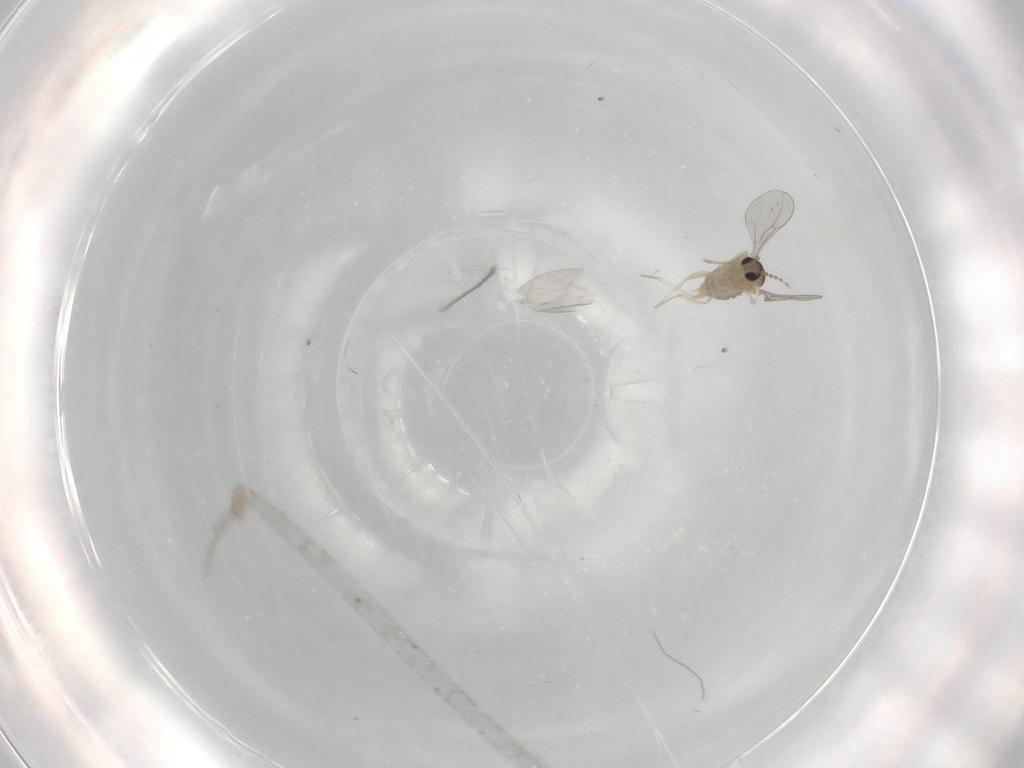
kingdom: Animalia
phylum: Arthropoda
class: Insecta
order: Diptera
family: Cecidomyiidae
